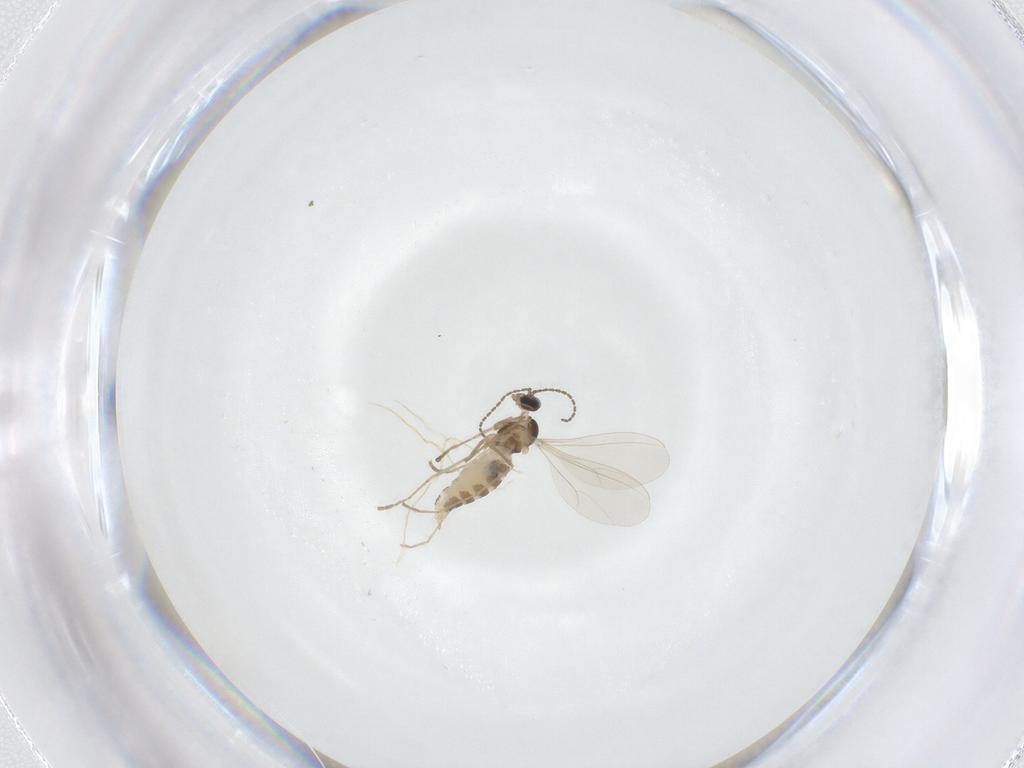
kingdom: Animalia
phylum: Arthropoda
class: Insecta
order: Diptera
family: Cecidomyiidae
